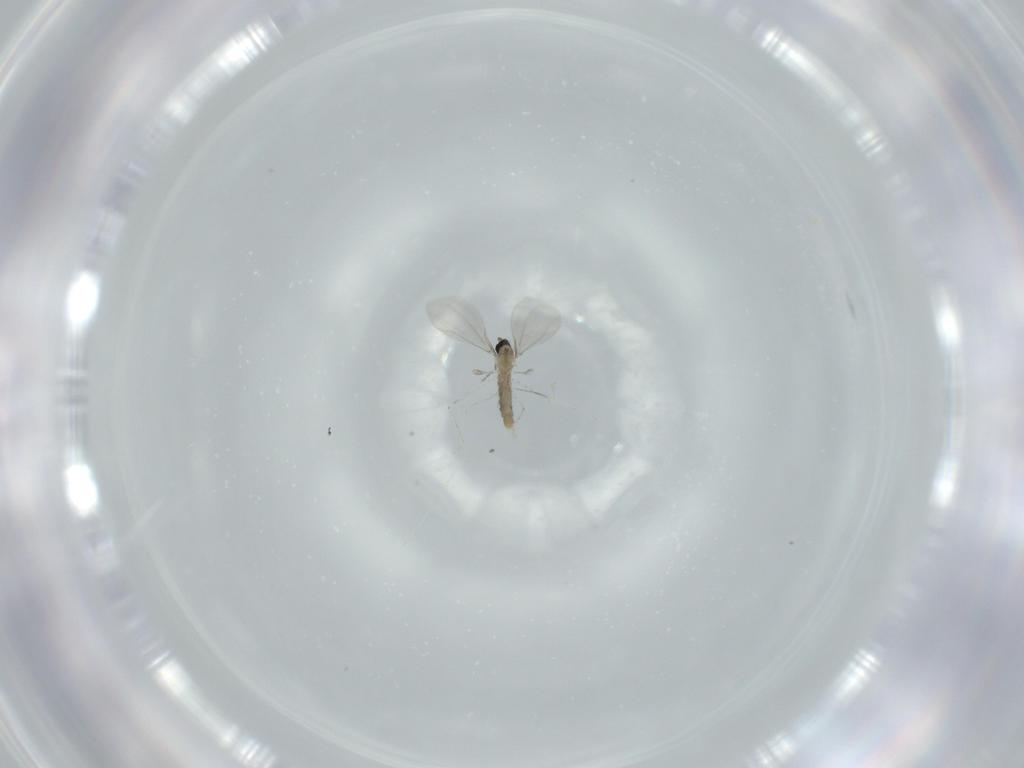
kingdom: Animalia
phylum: Arthropoda
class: Insecta
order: Diptera
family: Cecidomyiidae
